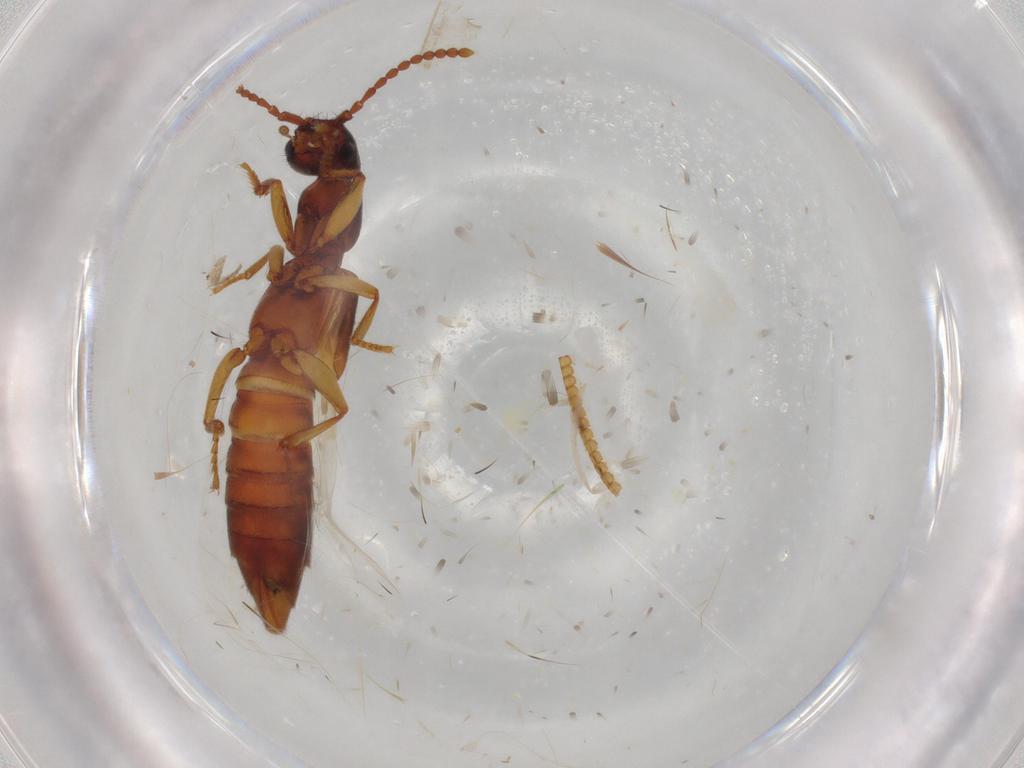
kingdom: Animalia
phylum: Arthropoda
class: Insecta
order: Coleoptera
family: Staphylinidae
